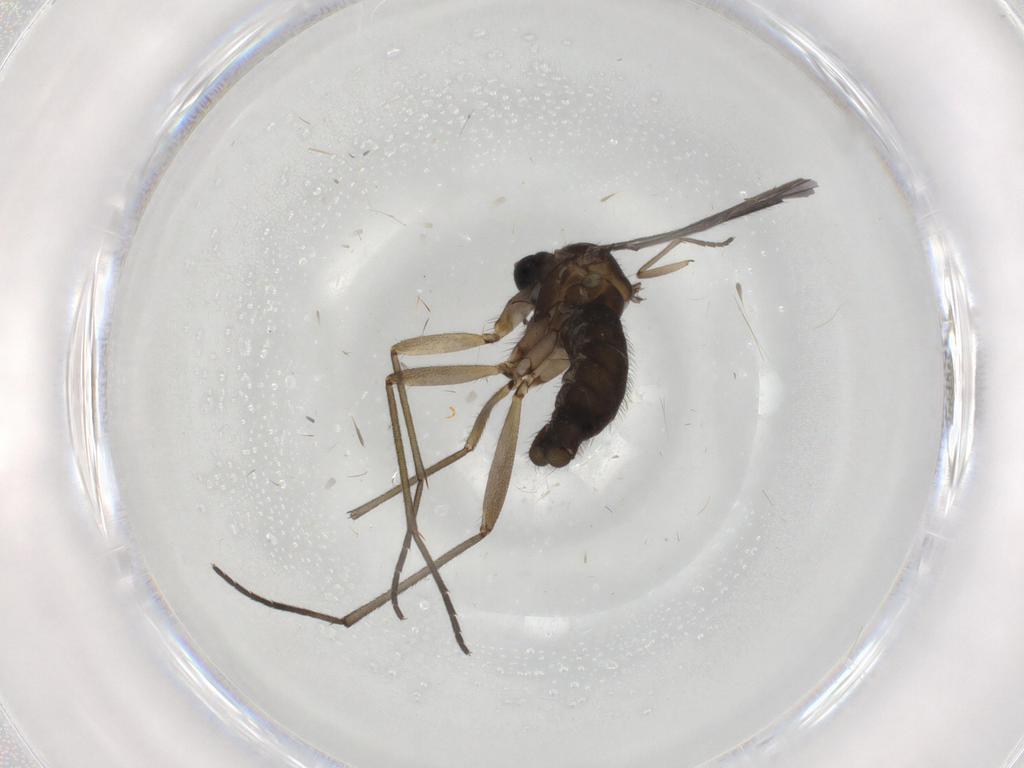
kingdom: Animalia
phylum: Arthropoda
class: Insecta
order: Diptera
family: Sciaridae
